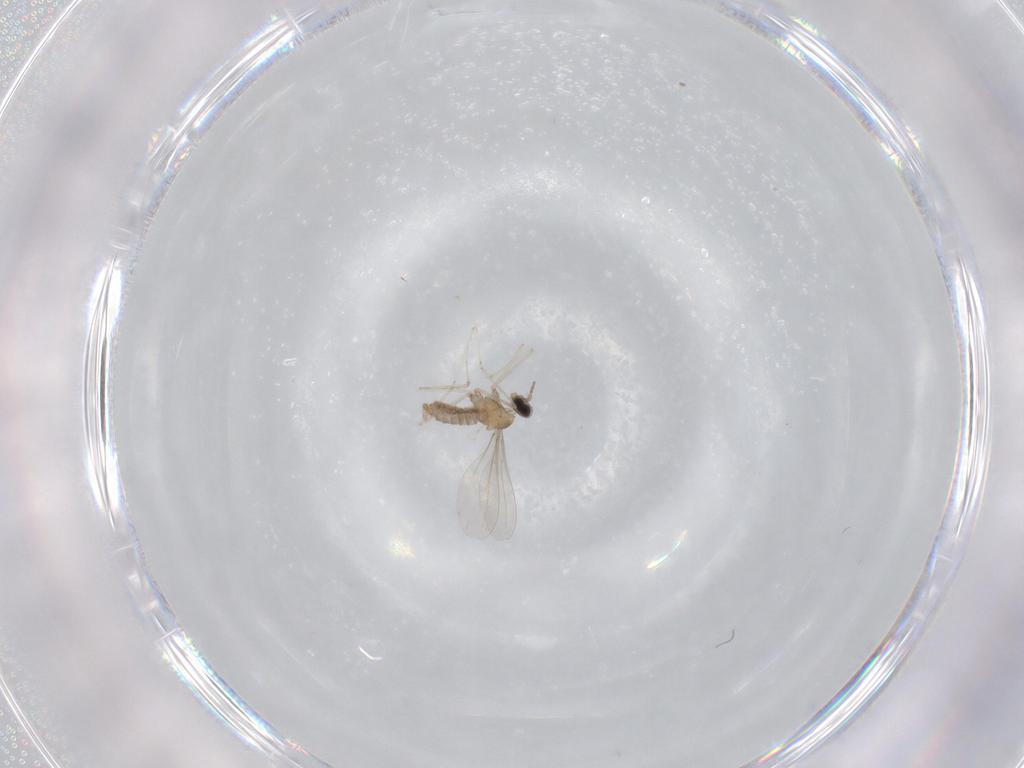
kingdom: Animalia
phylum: Arthropoda
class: Insecta
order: Diptera
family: Cecidomyiidae
